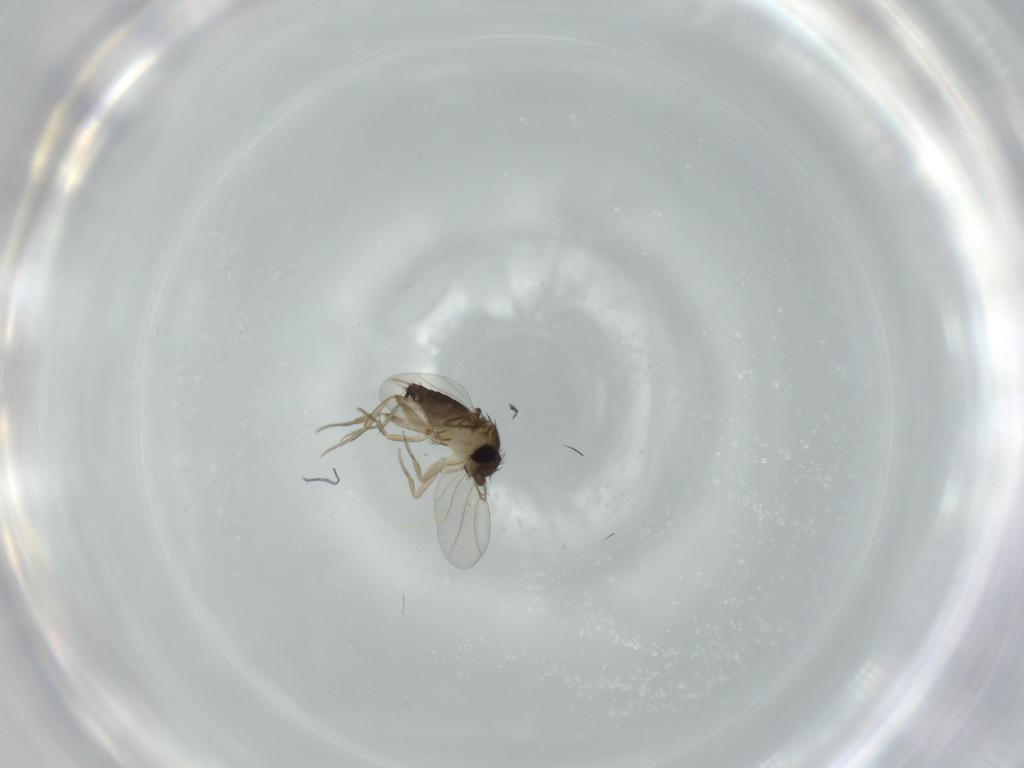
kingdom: Animalia
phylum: Arthropoda
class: Insecta
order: Diptera
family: Phoridae
